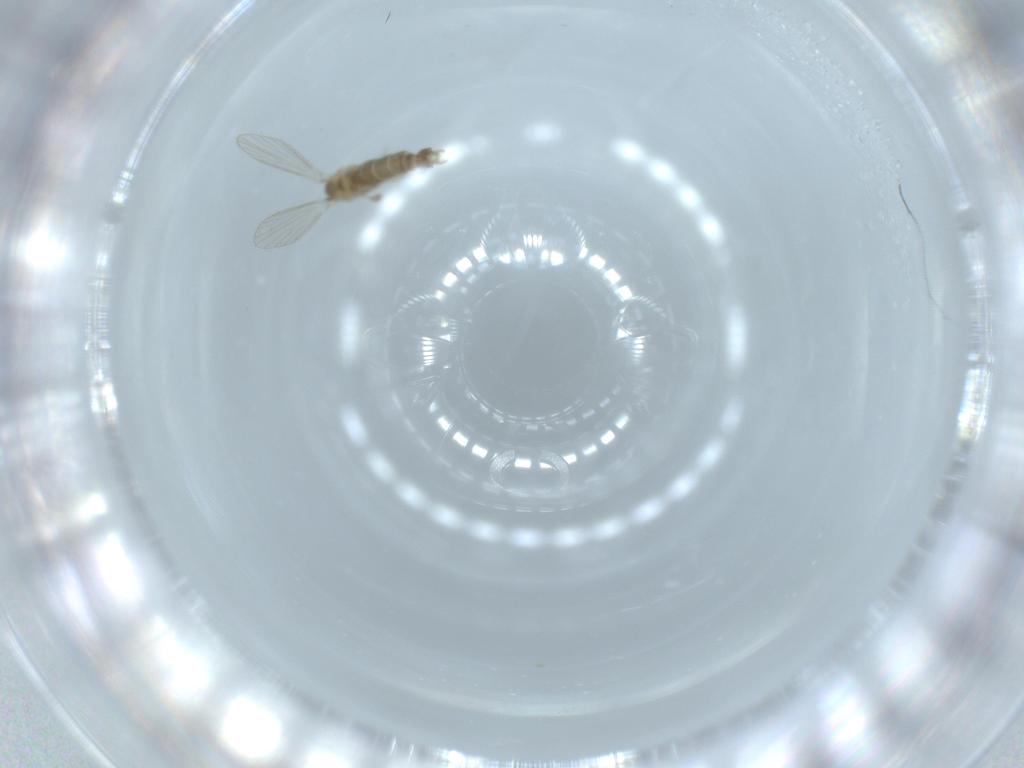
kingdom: Animalia
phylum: Arthropoda
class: Insecta
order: Diptera
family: Psychodidae
